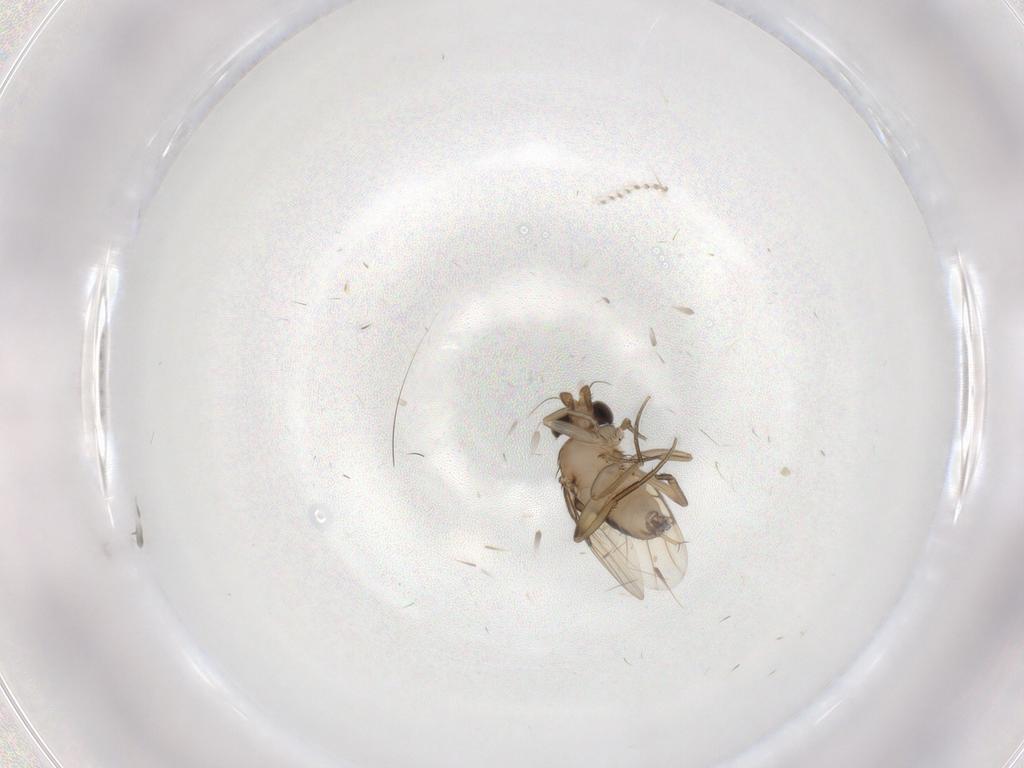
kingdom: Animalia
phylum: Arthropoda
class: Insecta
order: Diptera
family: Phoridae
